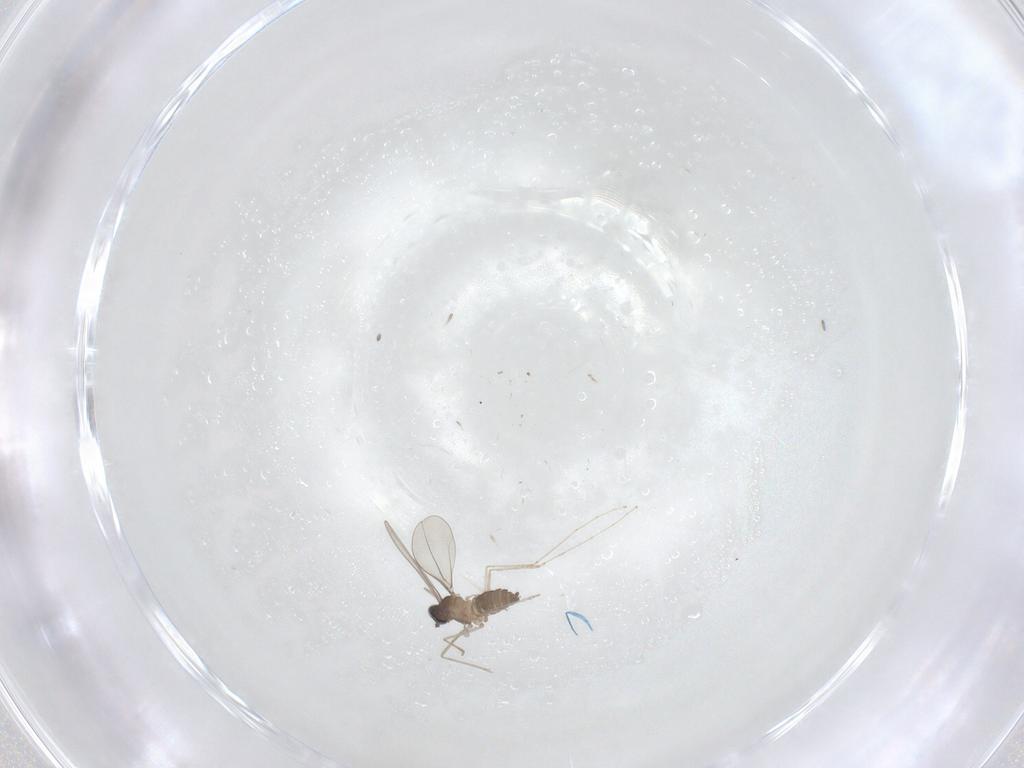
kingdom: Animalia
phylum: Arthropoda
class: Insecta
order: Diptera
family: Cecidomyiidae
